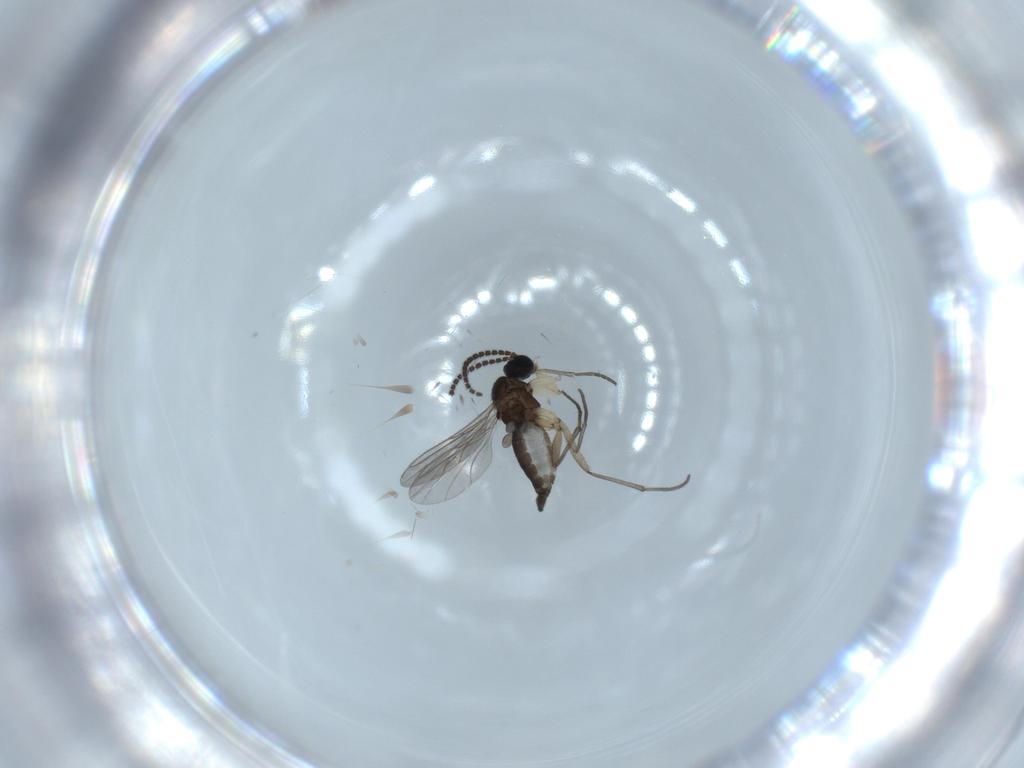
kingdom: Animalia
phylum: Arthropoda
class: Insecta
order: Diptera
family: Sciaridae
